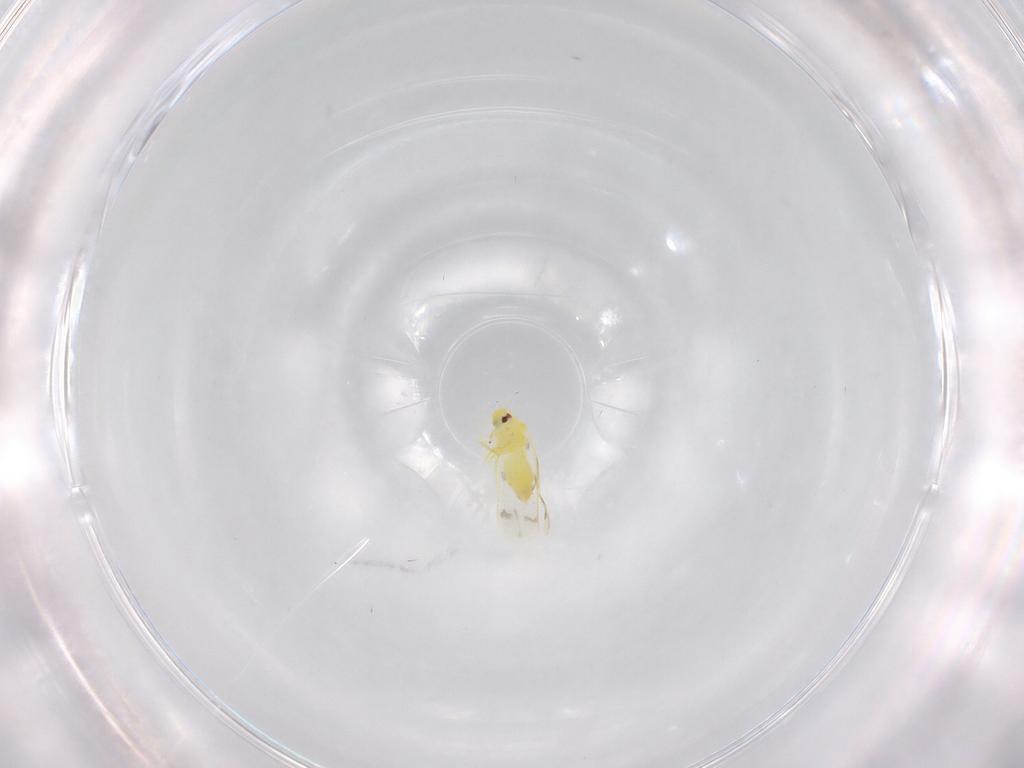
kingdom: Animalia
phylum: Arthropoda
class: Insecta
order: Hemiptera
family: Aleyrodidae
